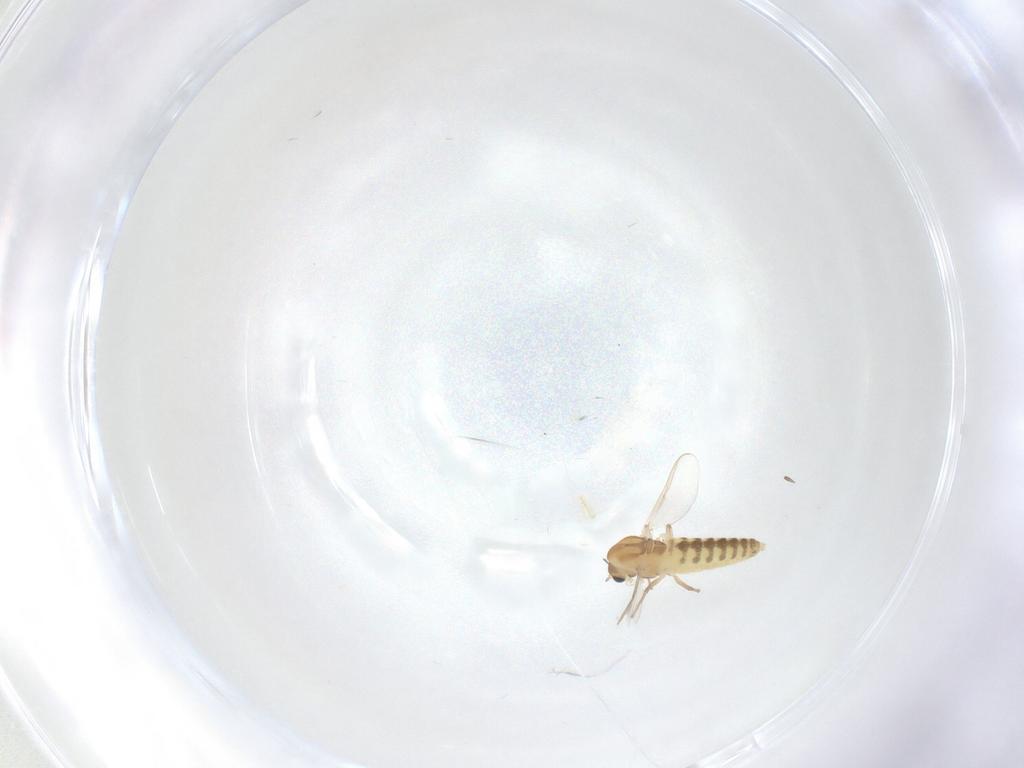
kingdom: Animalia
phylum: Arthropoda
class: Insecta
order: Diptera
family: Chironomidae
